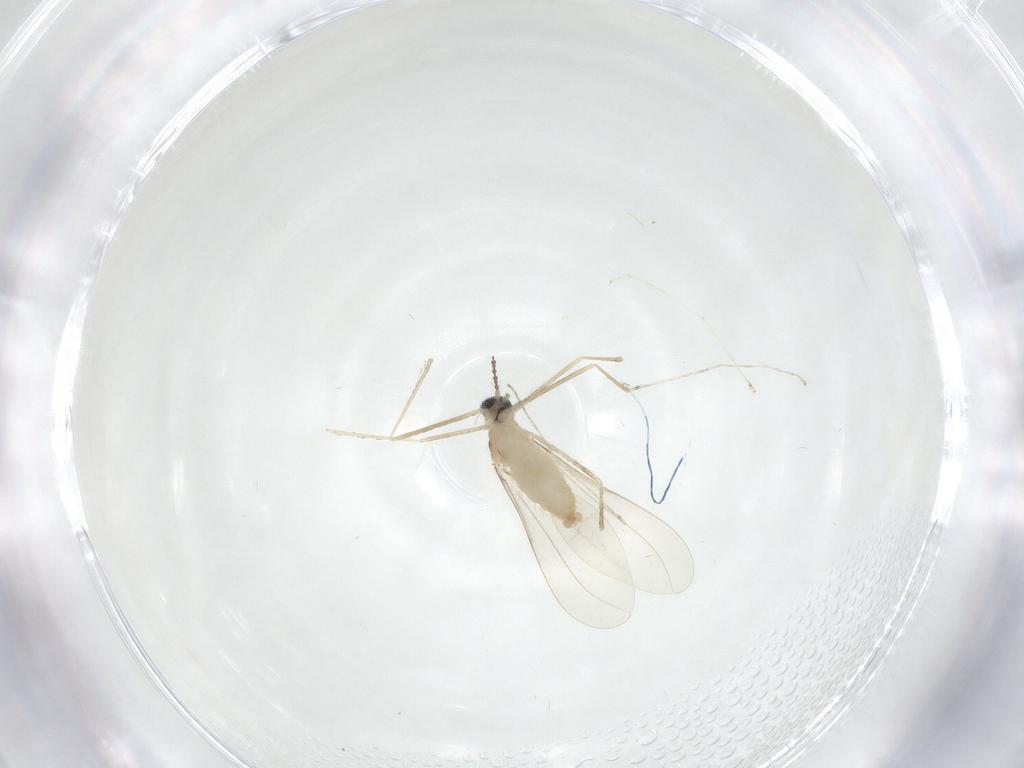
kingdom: Animalia
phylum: Arthropoda
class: Insecta
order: Diptera
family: Cecidomyiidae
